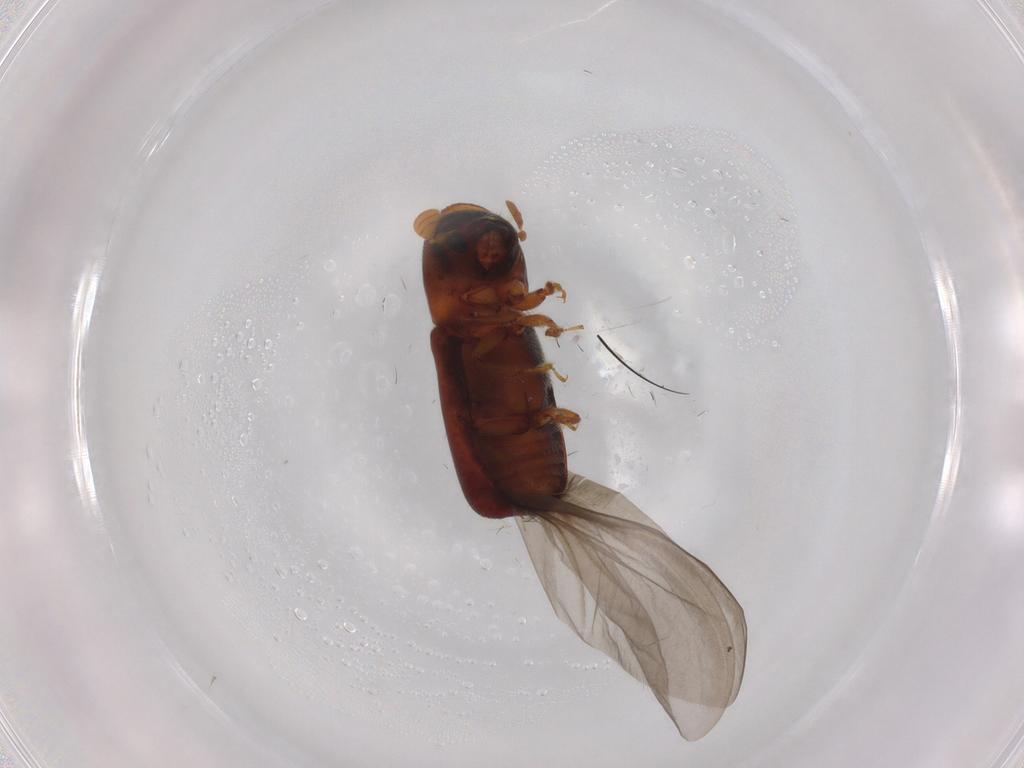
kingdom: Animalia
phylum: Arthropoda
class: Insecta
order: Coleoptera
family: Curculionidae
